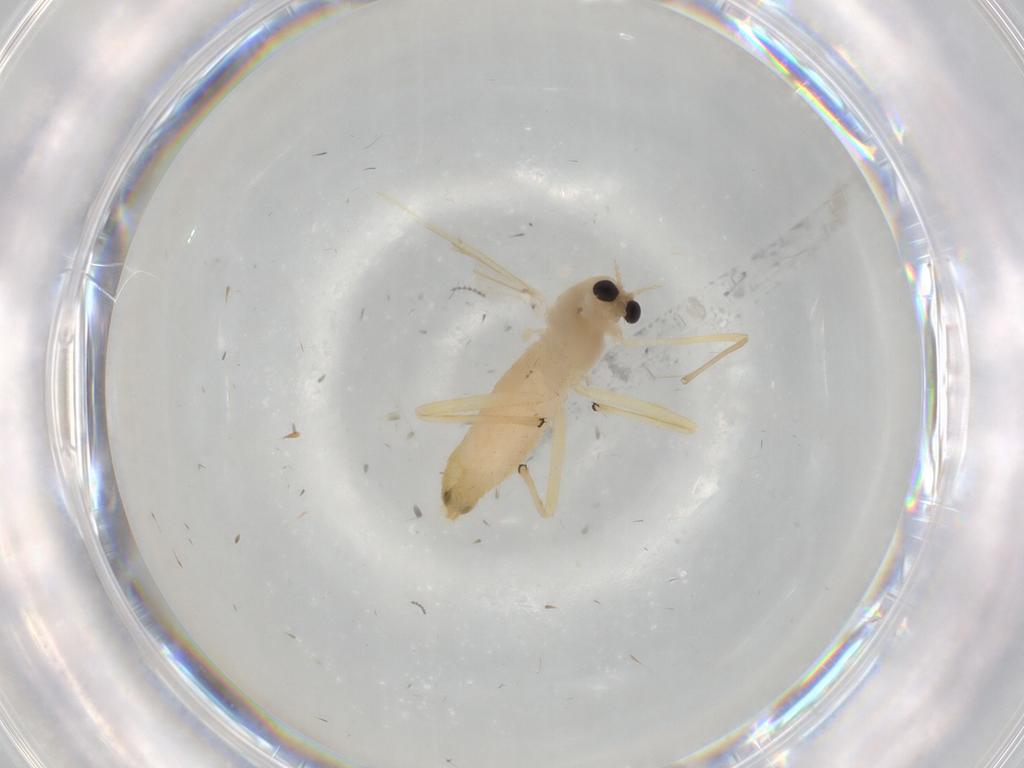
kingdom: Animalia
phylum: Arthropoda
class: Insecta
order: Diptera
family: Chironomidae
